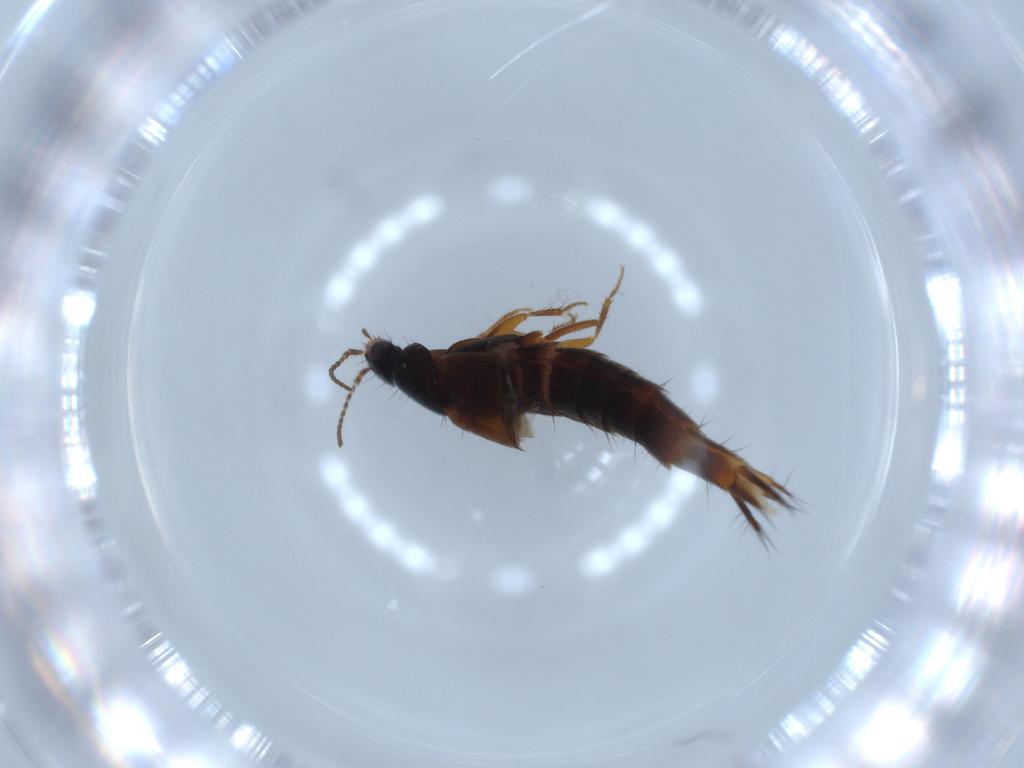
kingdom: Animalia
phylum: Arthropoda
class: Insecta
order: Coleoptera
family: Staphylinidae
